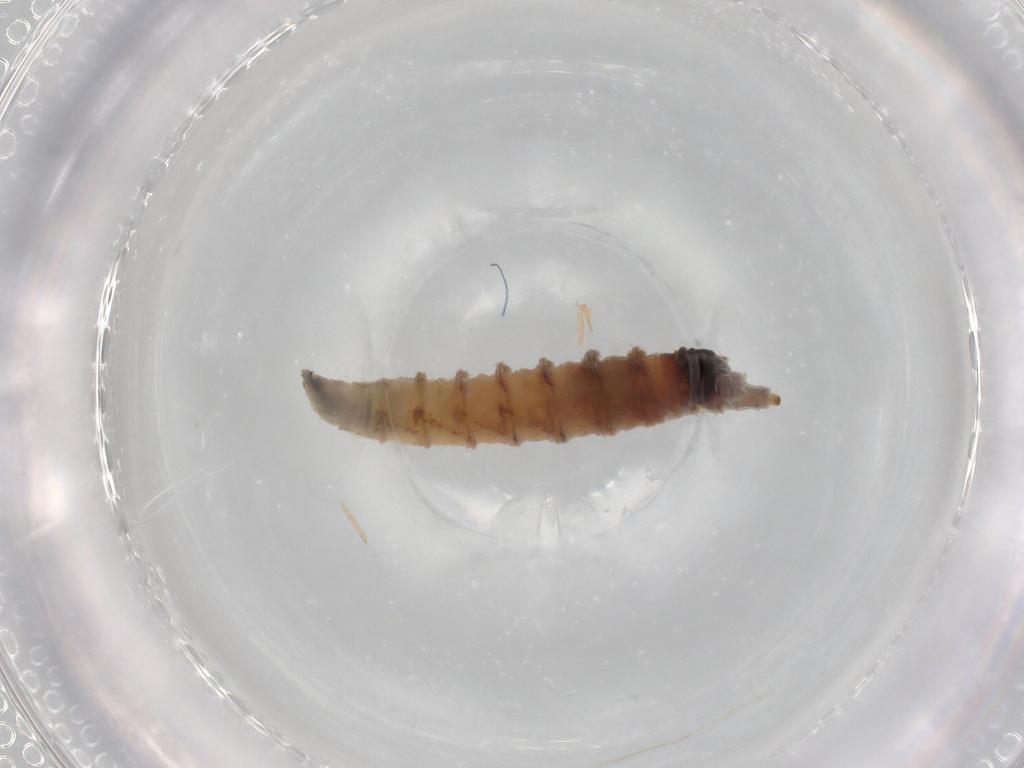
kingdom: Animalia
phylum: Arthropoda
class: Insecta
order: Diptera
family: Drosophilidae
